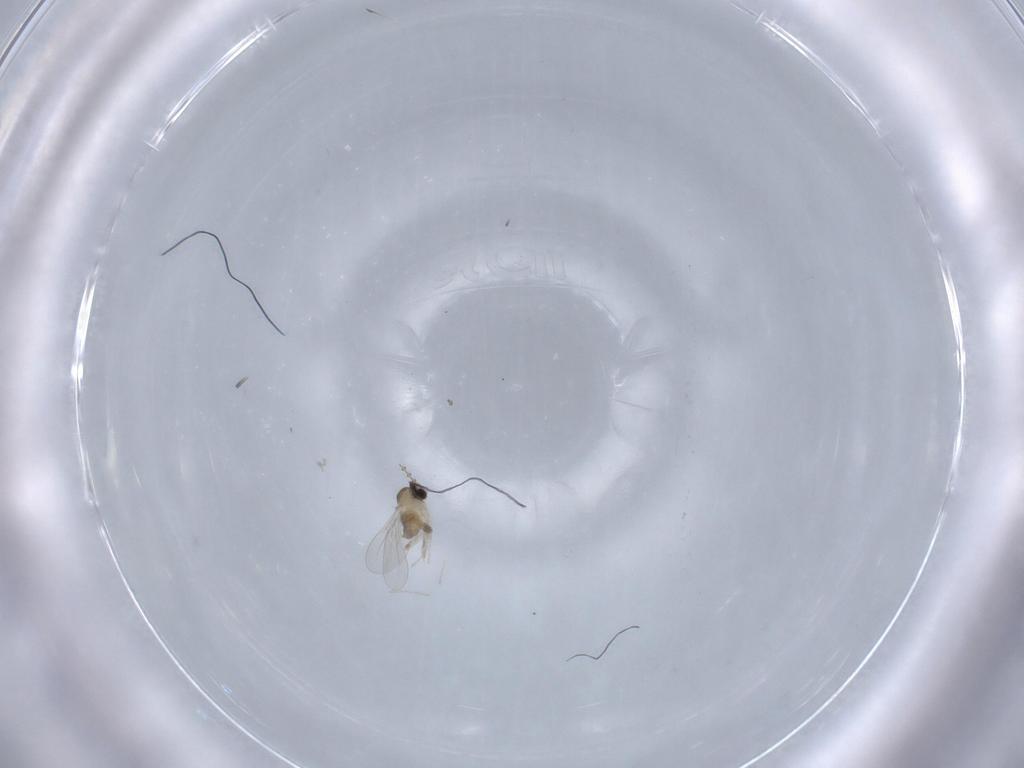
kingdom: Animalia
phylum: Arthropoda
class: Insecta
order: Diptera
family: Cecidomyiidae
